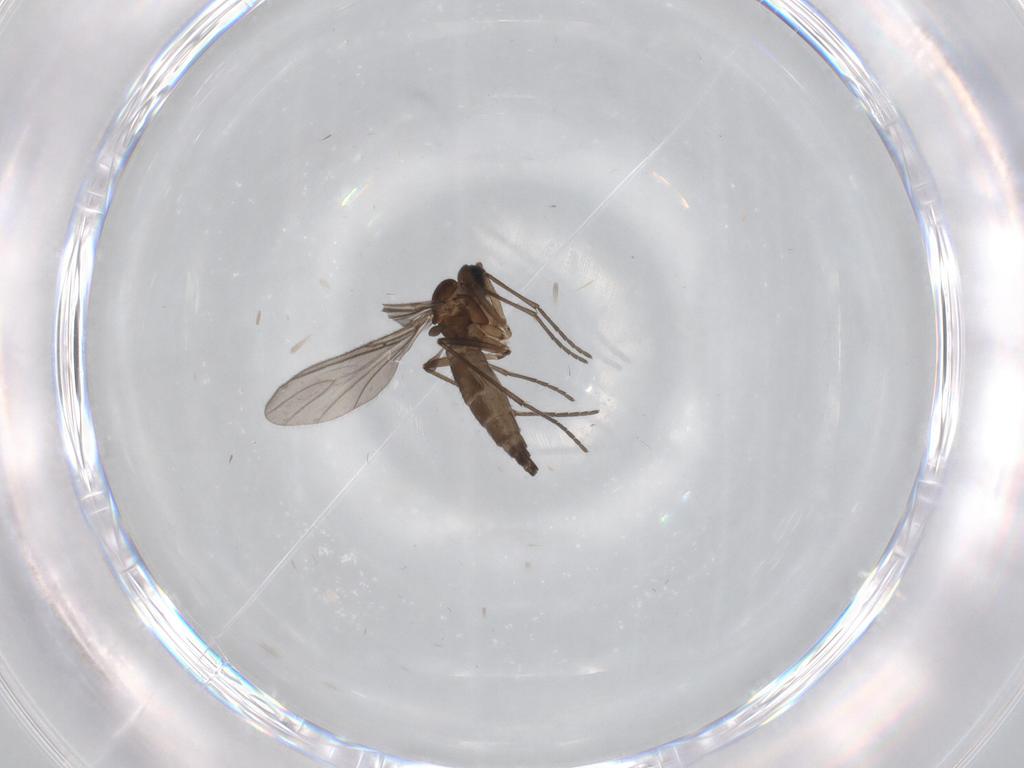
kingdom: Animalia
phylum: Arthropoda
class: Insecta
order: Diptera
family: Sciaridae
